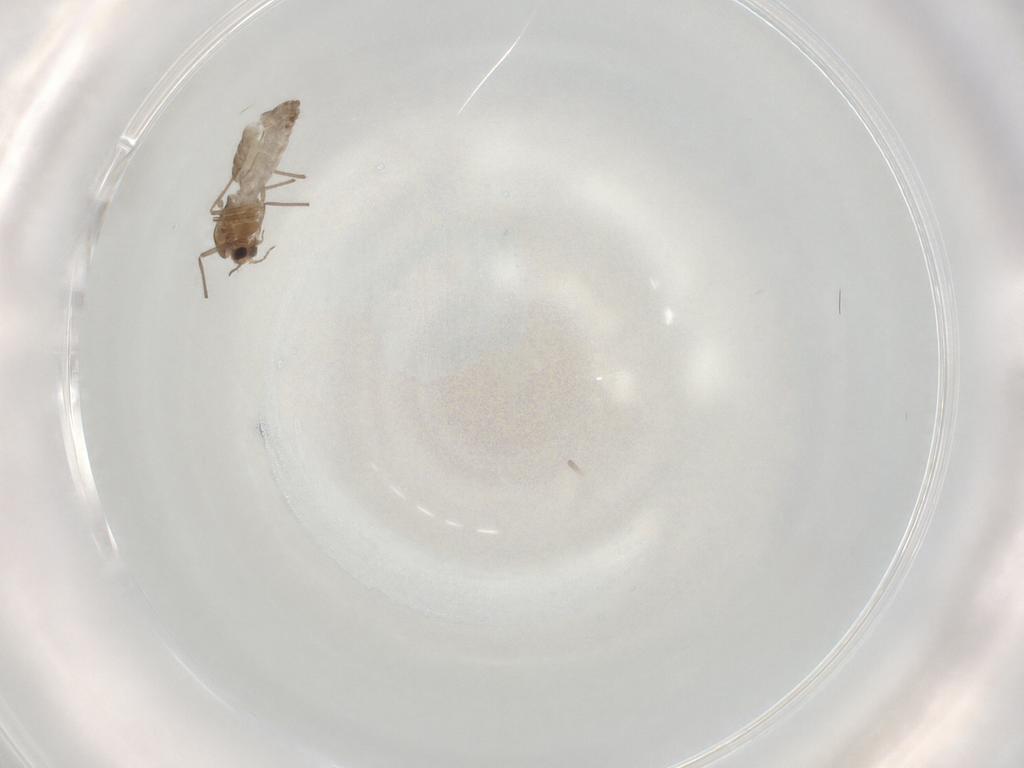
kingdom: Animalia
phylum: Arthropoda
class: Insecta
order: Diptera
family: Chironomidae
